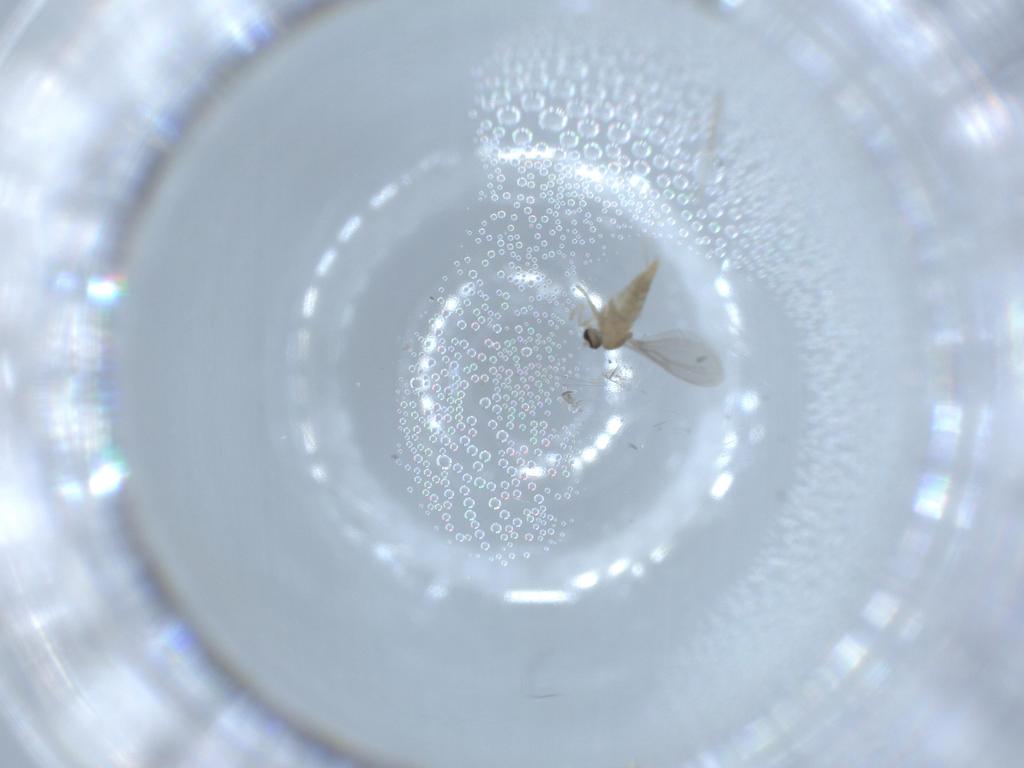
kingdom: Animalia
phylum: Arthropoda
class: Insecta
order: Diptera
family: Cecidomyiidae
